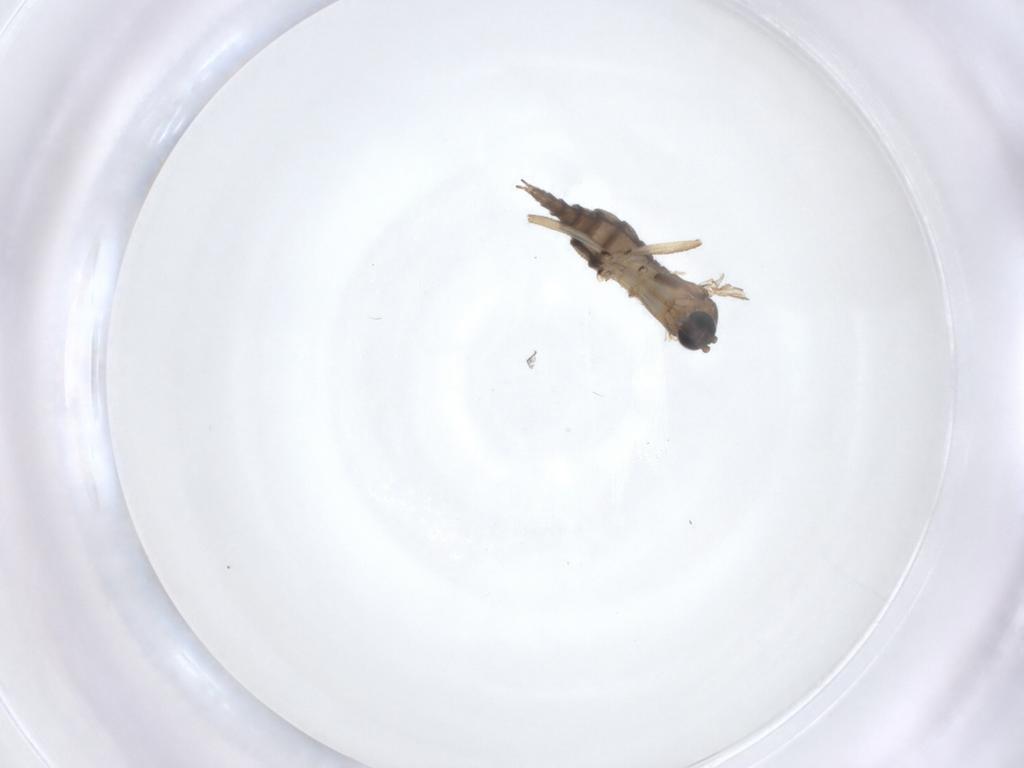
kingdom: Animalia
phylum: Arthropoda
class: Insecta
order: Diptera
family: Sciaridae
